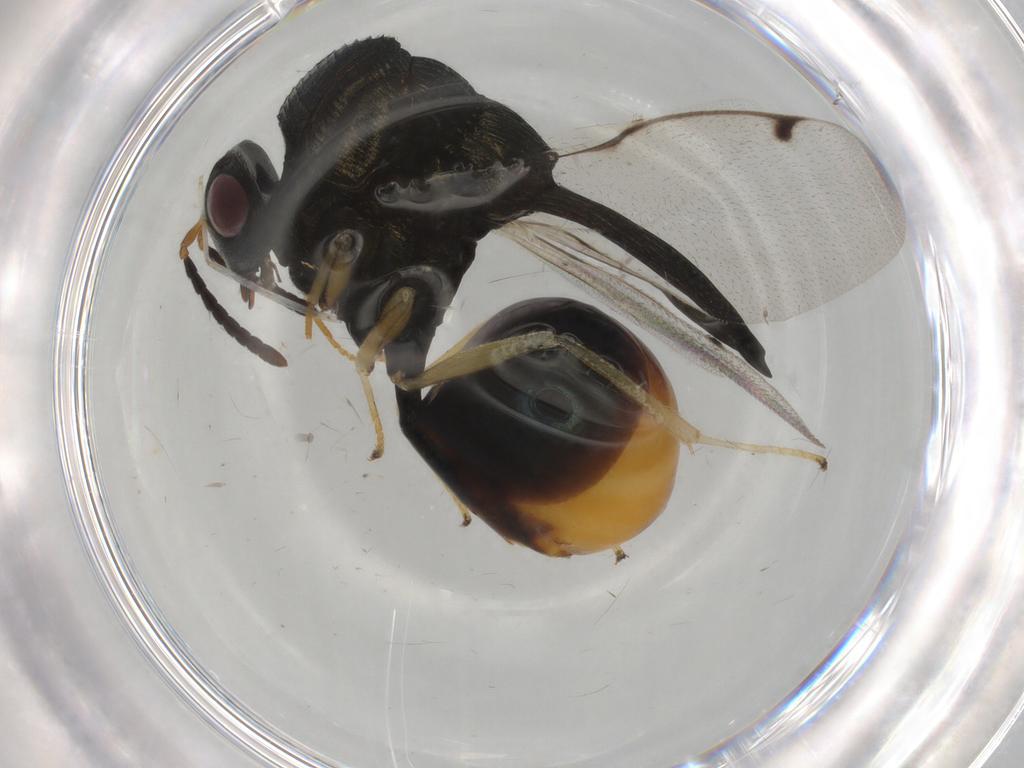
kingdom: Animalia
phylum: Arthropoda
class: Insecta
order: Hymenoptera
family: Eucharitidae
